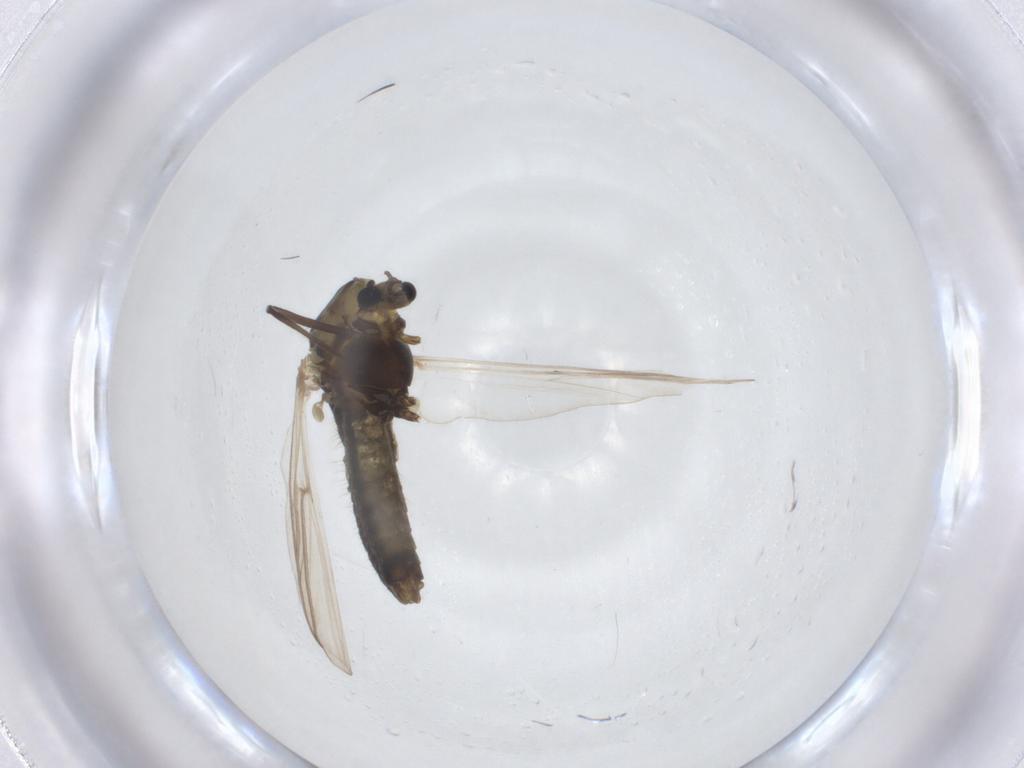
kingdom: Animalia
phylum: Arthropoda
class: Insecta
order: Diptera
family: Chironomidae
